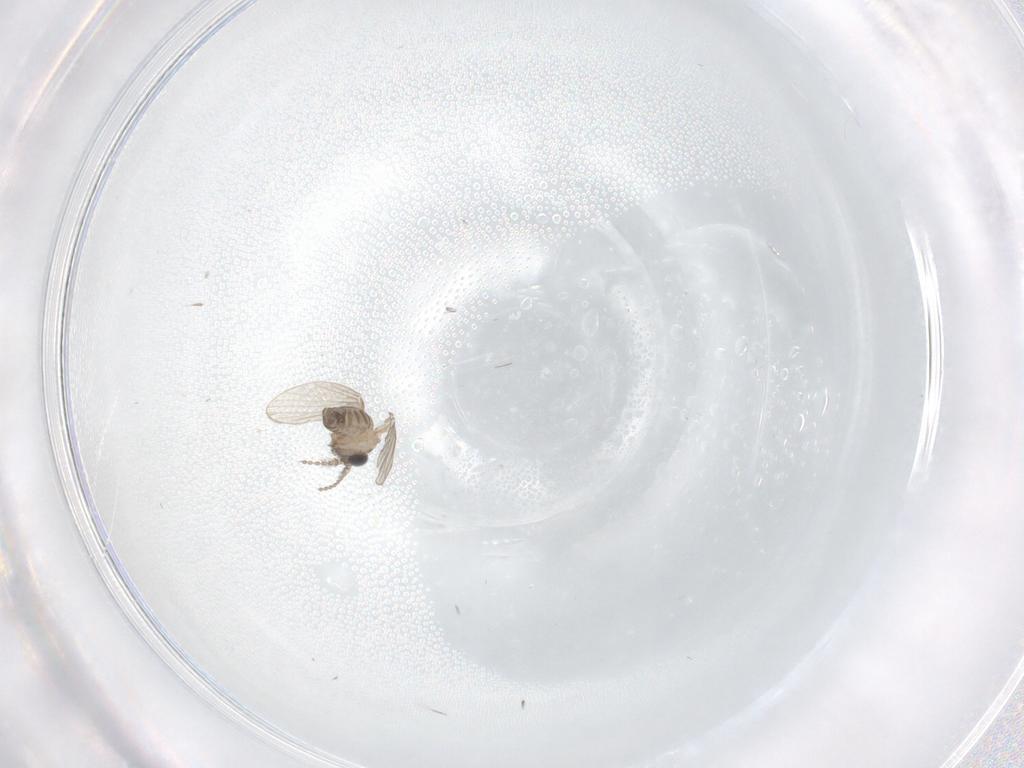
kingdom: Animalia
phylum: Arthropoda
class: Insecta
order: Diptera
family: Cecidomyiidae
